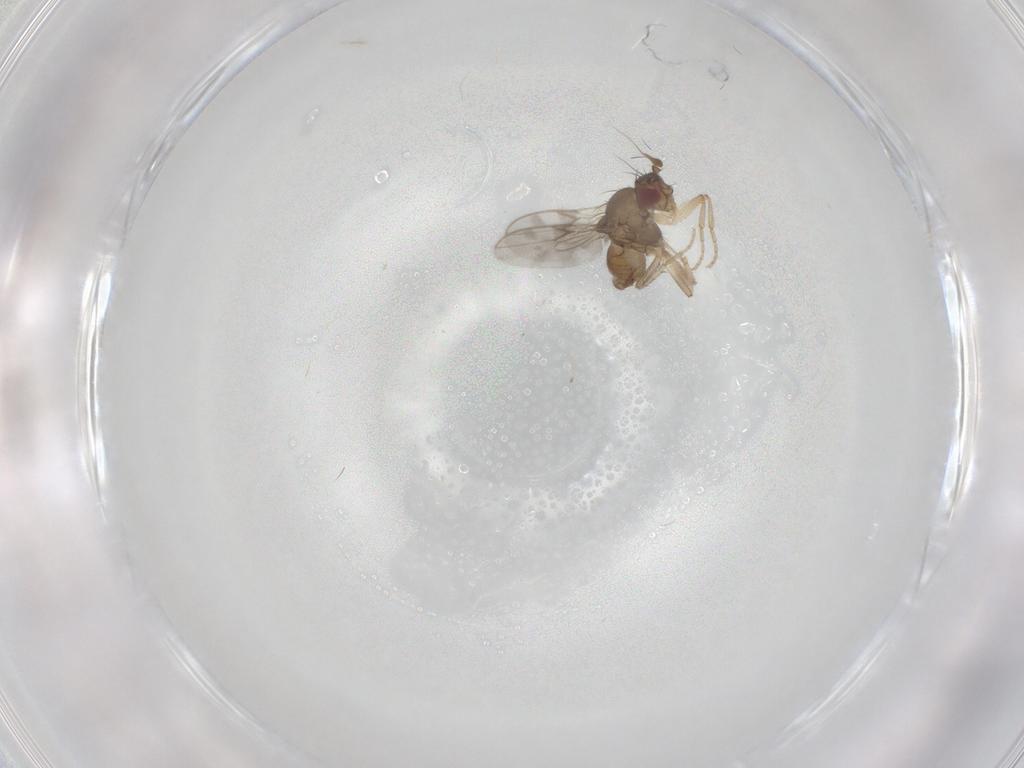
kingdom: Animalia
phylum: Arthropoda
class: Insecta
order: Diptera
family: Sphaeroceridae
